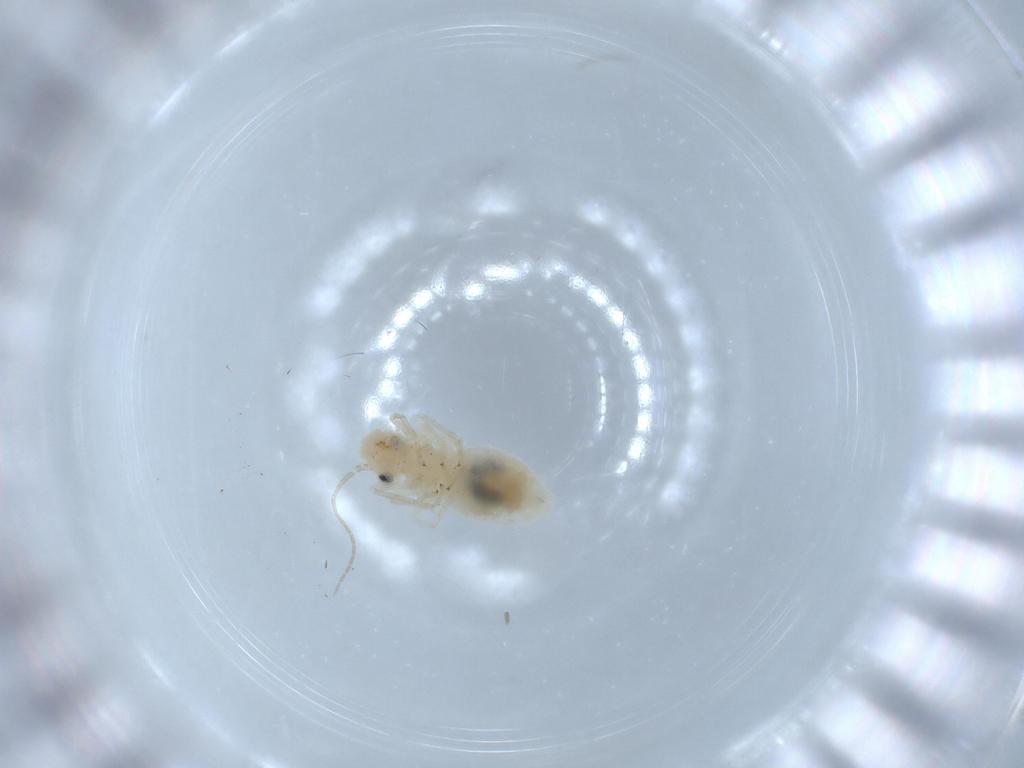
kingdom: Animalia
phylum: Arthropoda
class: Insecta
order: Psocodea
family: Caeciliusidae
